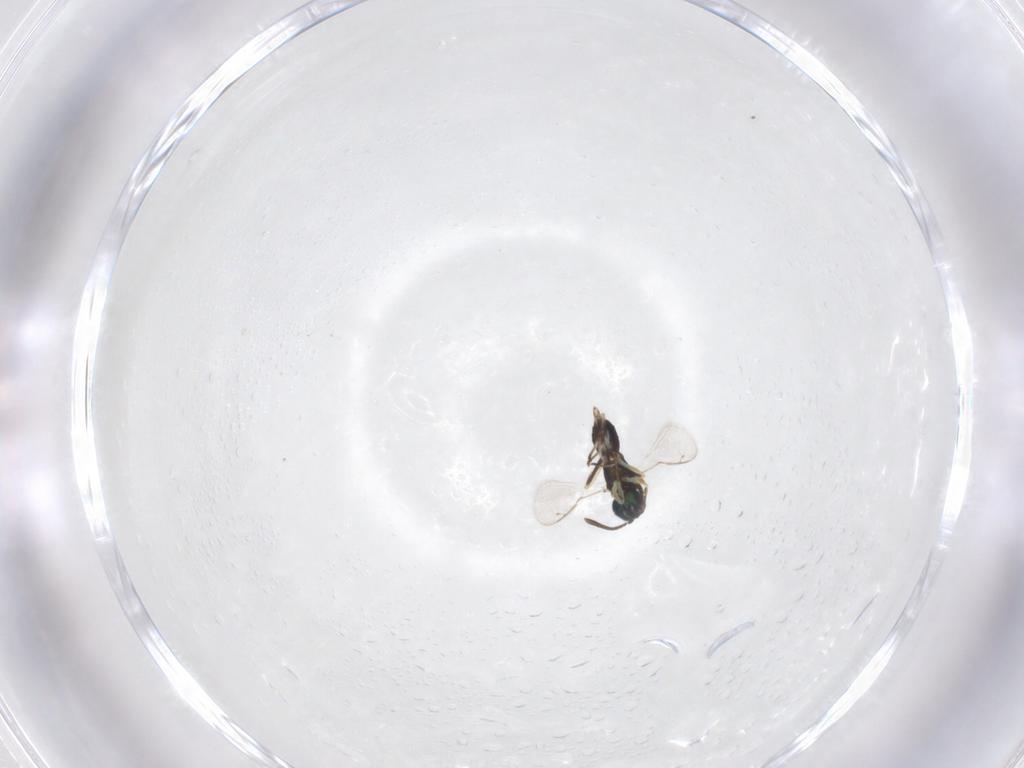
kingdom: Animalia
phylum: Arthropoda
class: Insecta
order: Hymenoptera
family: Eupelmidae
